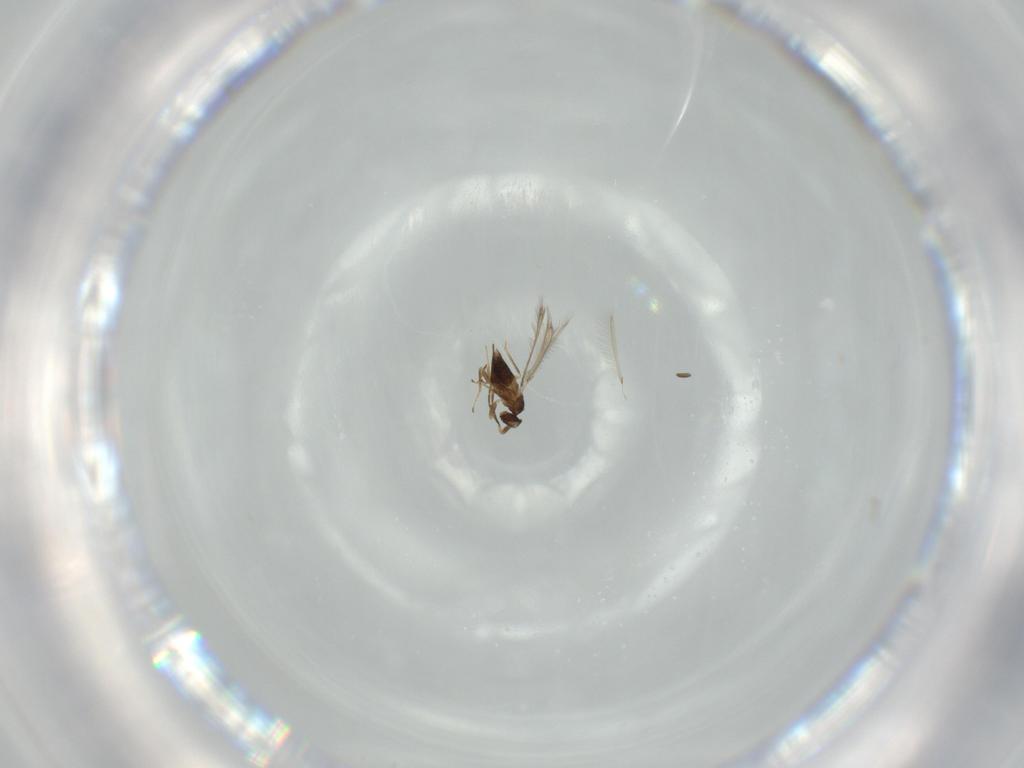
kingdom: Animalia
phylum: Arthropoda
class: Insecta
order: Hymenoptera
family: Mymaridae
